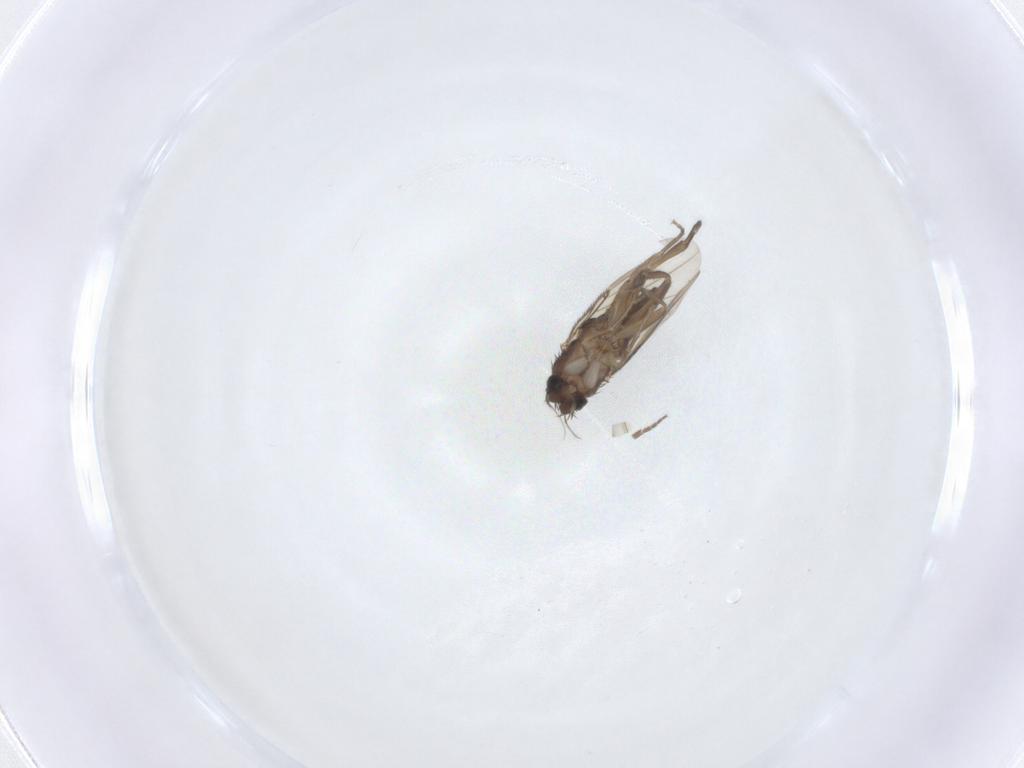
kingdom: Animalia
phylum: Arthropoda
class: Insecta
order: Diptera
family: Phoridae
